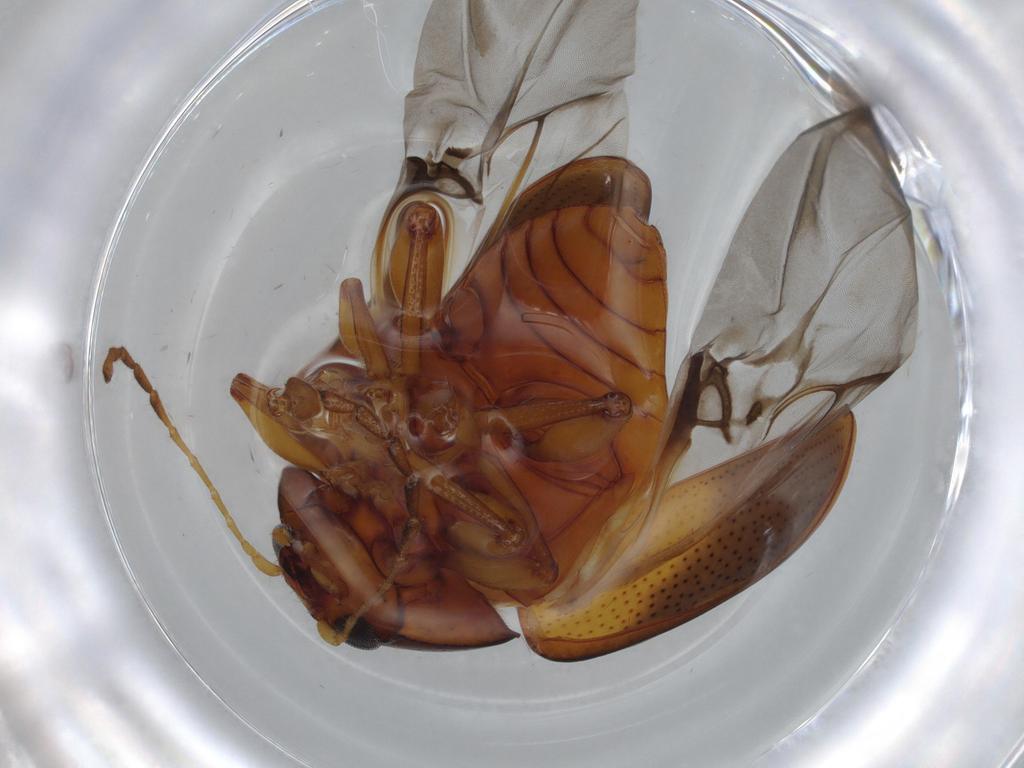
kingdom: Animalia
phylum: Arthropoda
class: Insecta
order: Coleoptera
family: Chrysomelidae
